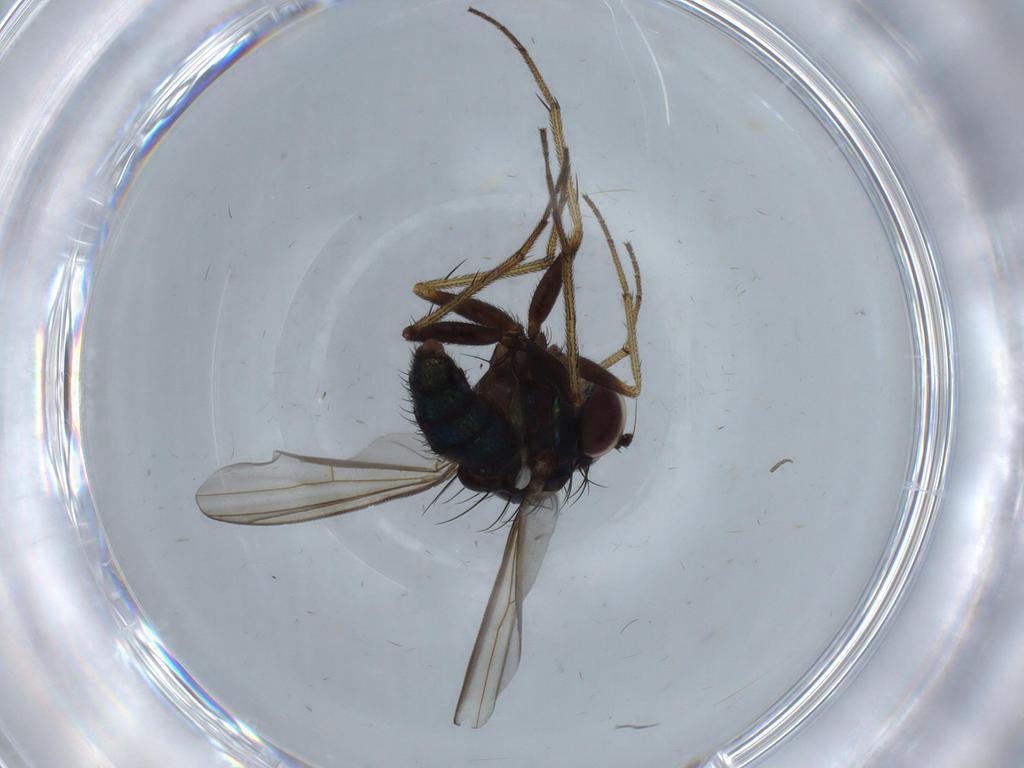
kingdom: Animalia
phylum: Arthropoda
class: Insecta
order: Diptera
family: Dolichopodidae
